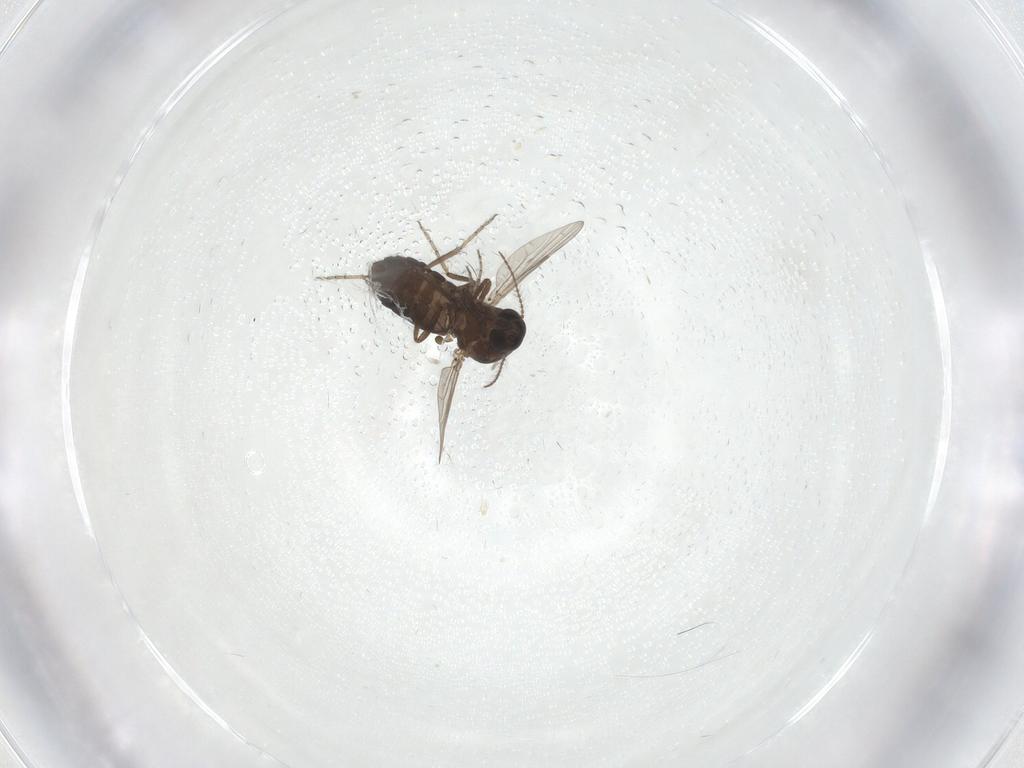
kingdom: Animalia
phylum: Arthropoda
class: Insecta
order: Diptera
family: Ceratopogonidae
